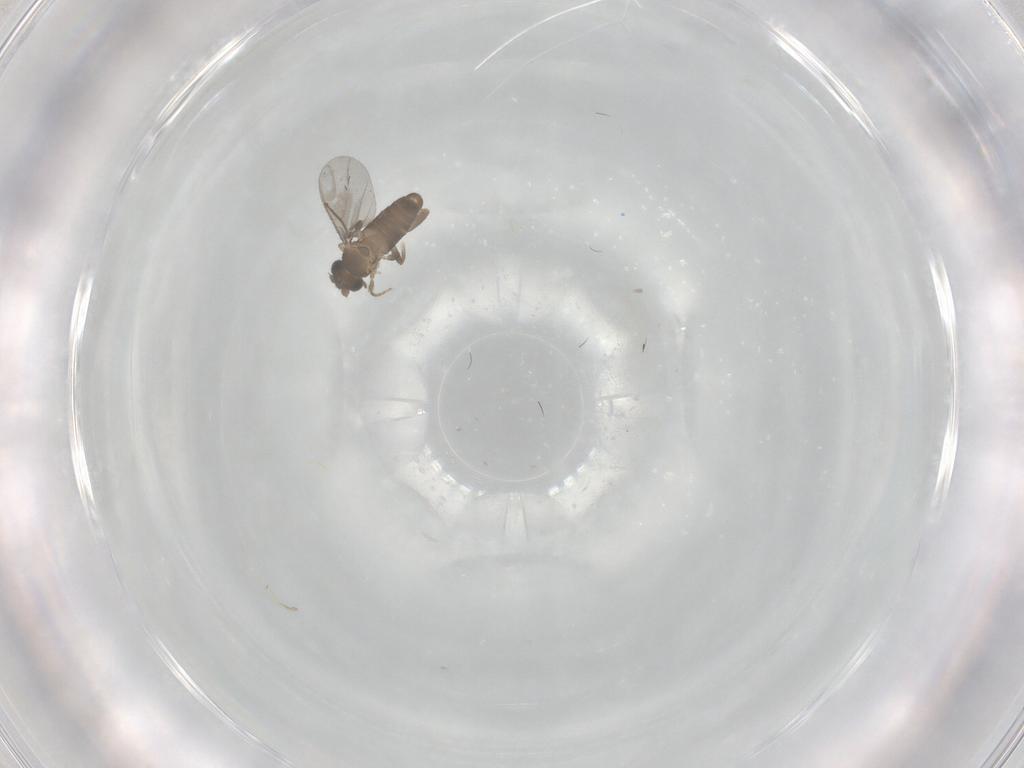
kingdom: Animalia
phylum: Arthropoda
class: Insecta
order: Diptera
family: Cecidomyiidae
